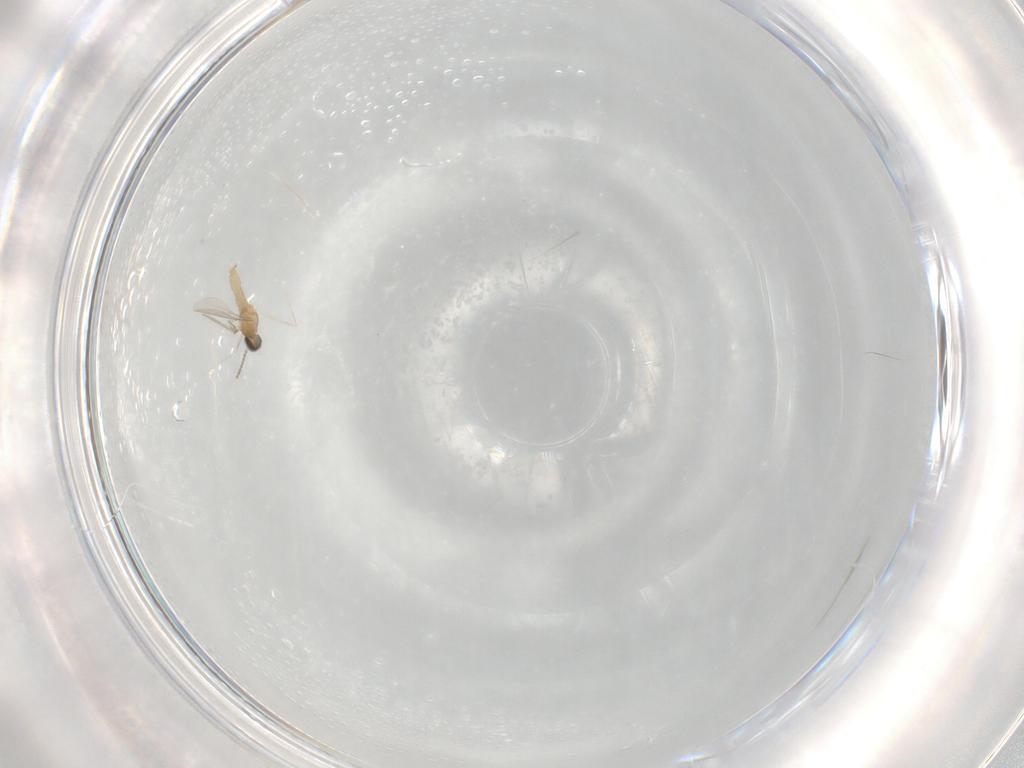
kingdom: Animalia
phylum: Arthropoda
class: Insecta
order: Diptera
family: Cecidomyiidae
